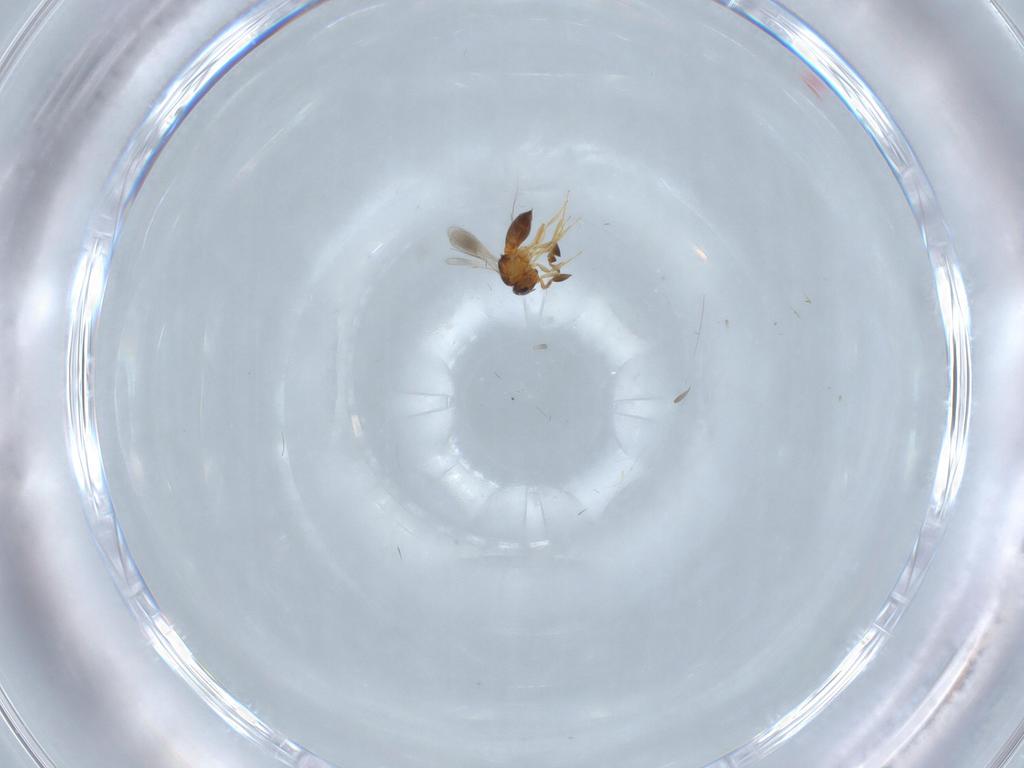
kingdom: Animalia
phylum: Arthropoda
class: Insecta
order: Hymenoptera
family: Scelionidae
